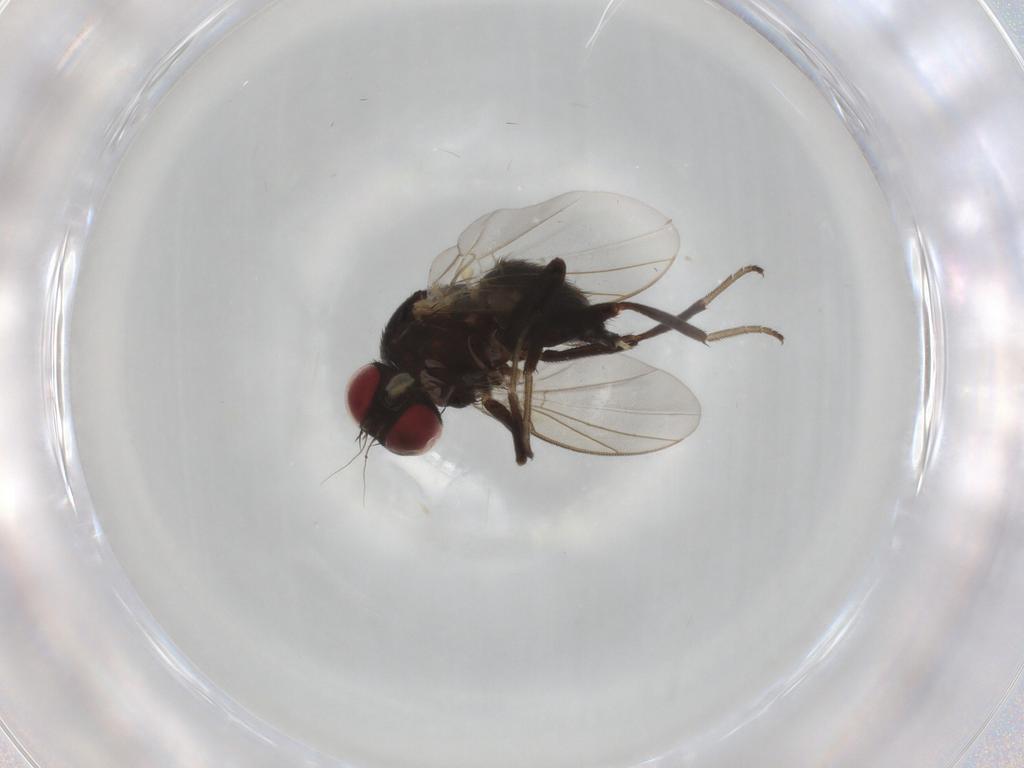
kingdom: Animalia
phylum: Arthropoda
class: Insecta
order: Diptera
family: Agromyzidae
